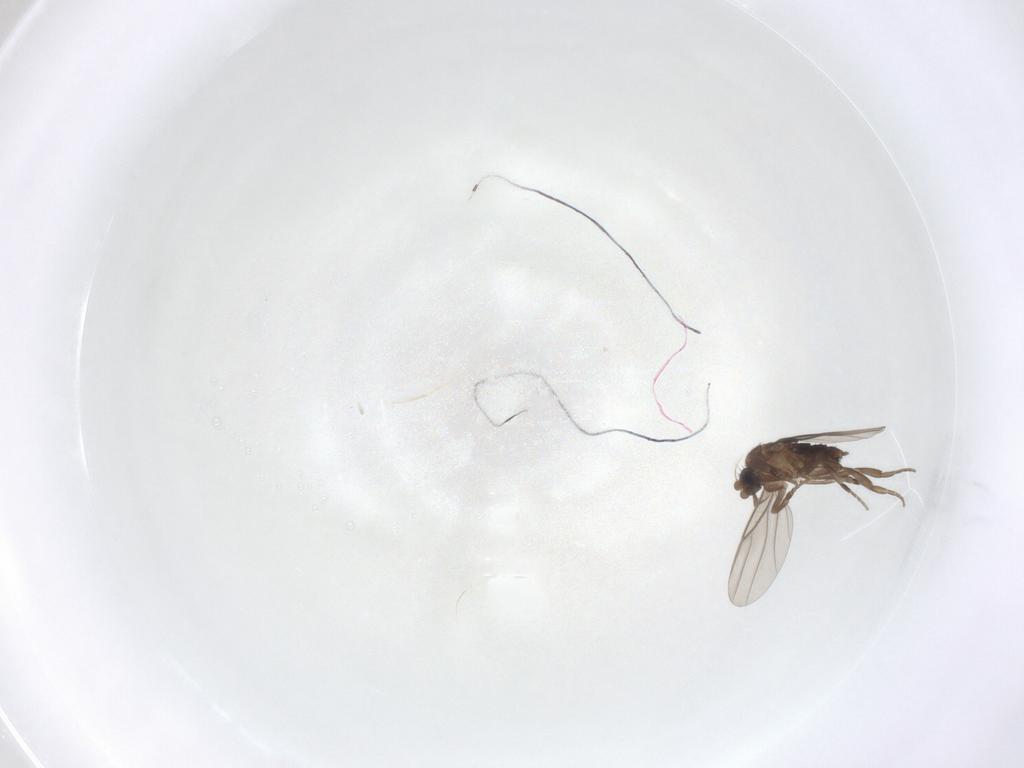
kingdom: Animalia
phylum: Arthropoda
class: Insecta
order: Diptera
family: Phoridae
